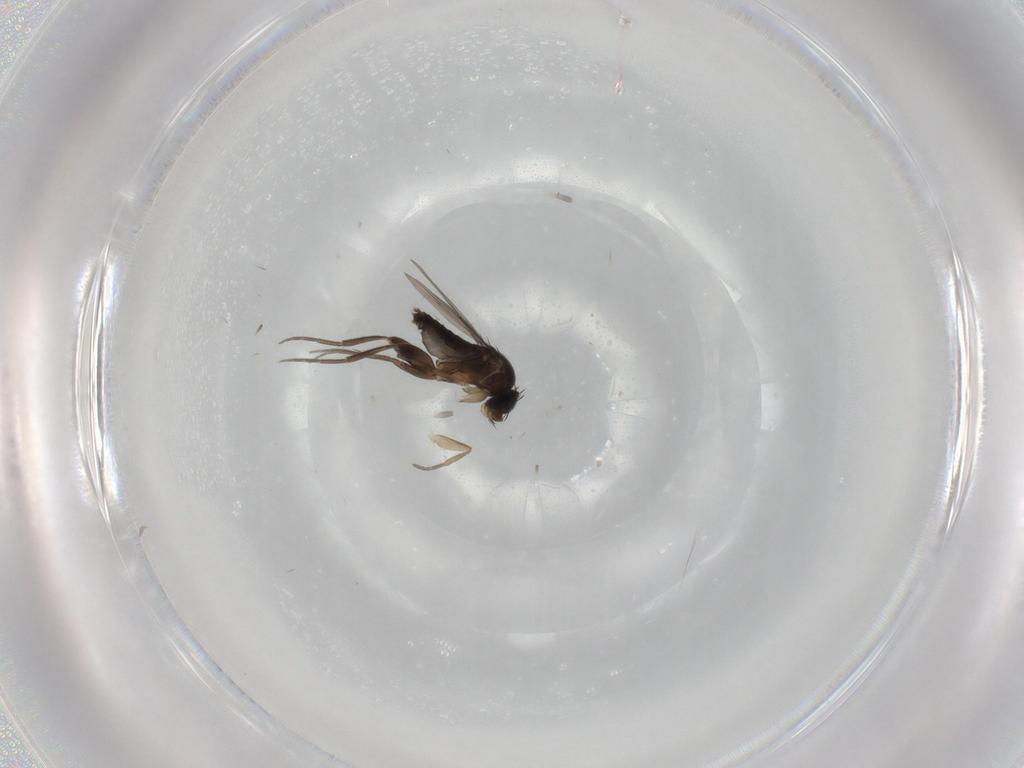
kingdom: Animalia
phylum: Arthropoda
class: Insecta
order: Diptera
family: Phoridae
